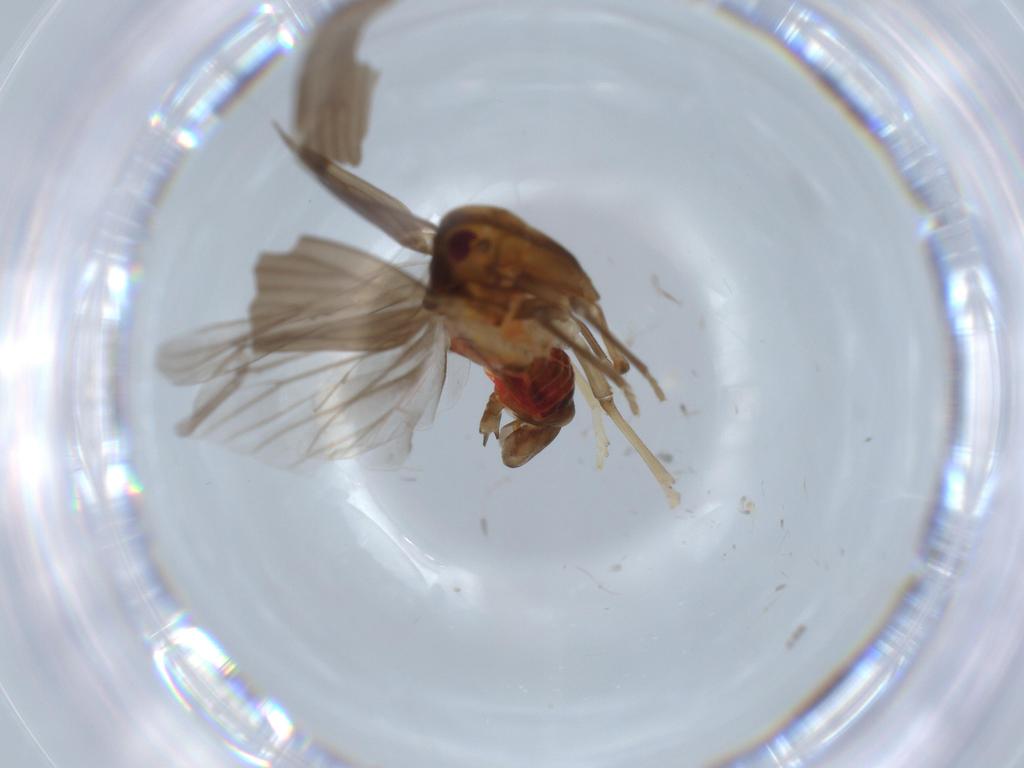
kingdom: Animalia
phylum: Arthropoda
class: Insecta
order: Hemiptera
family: Derbidae
